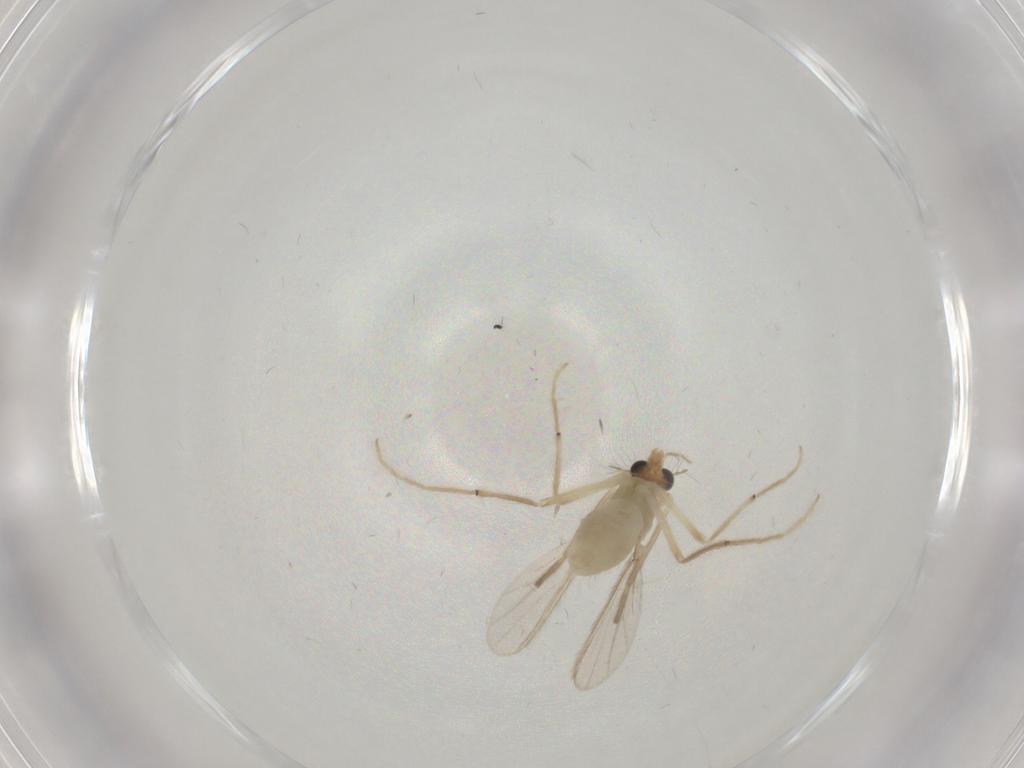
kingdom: Animalia
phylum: Arthropoda
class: Insecta
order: Diptera
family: Chironomidae
